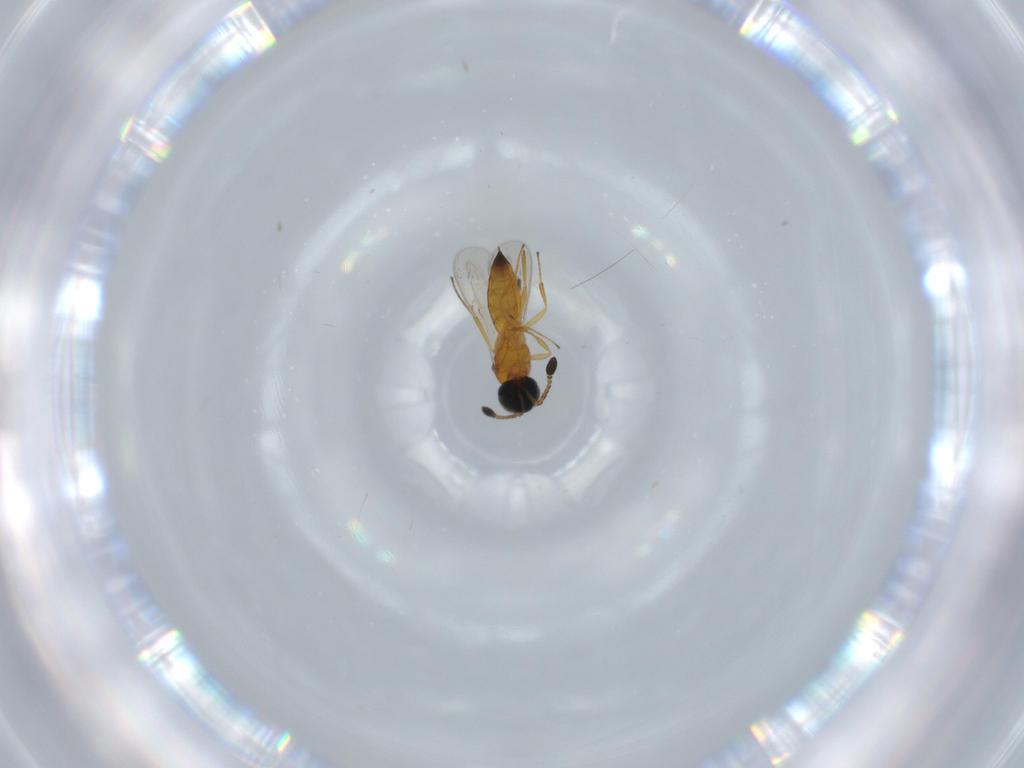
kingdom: Animalia
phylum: Arthropoda
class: Insecta
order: Hymenoptera
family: Scelionidae
